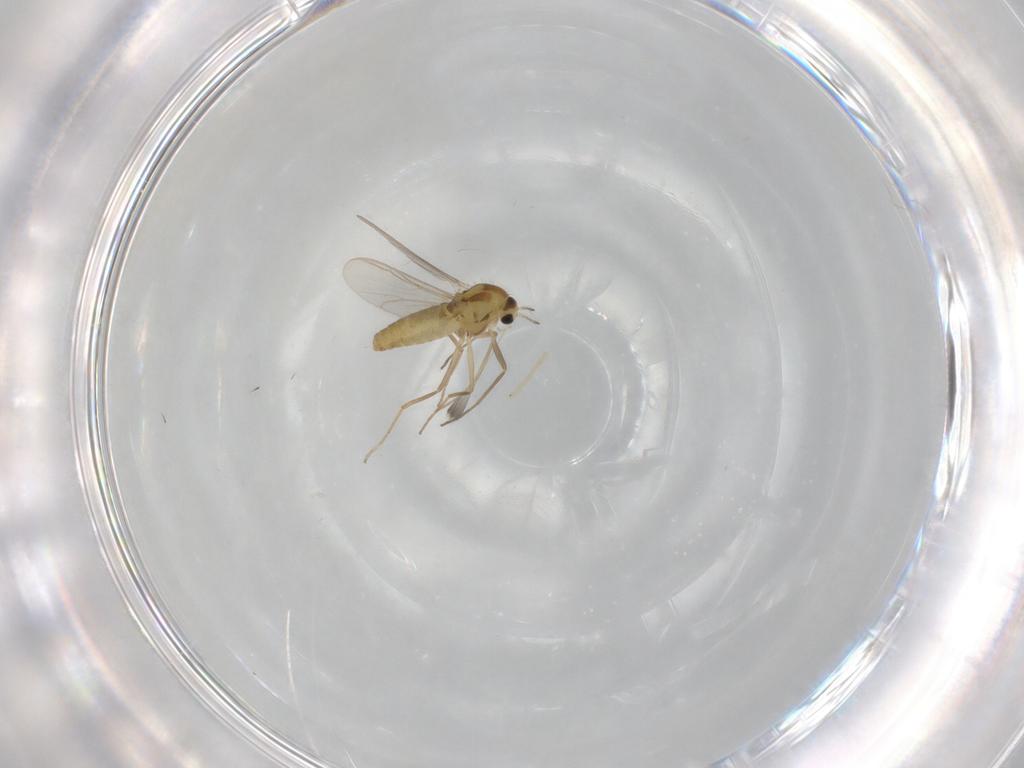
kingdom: Animalia
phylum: Arthropoda
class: Insecta
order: Diptera
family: Chironomidae
